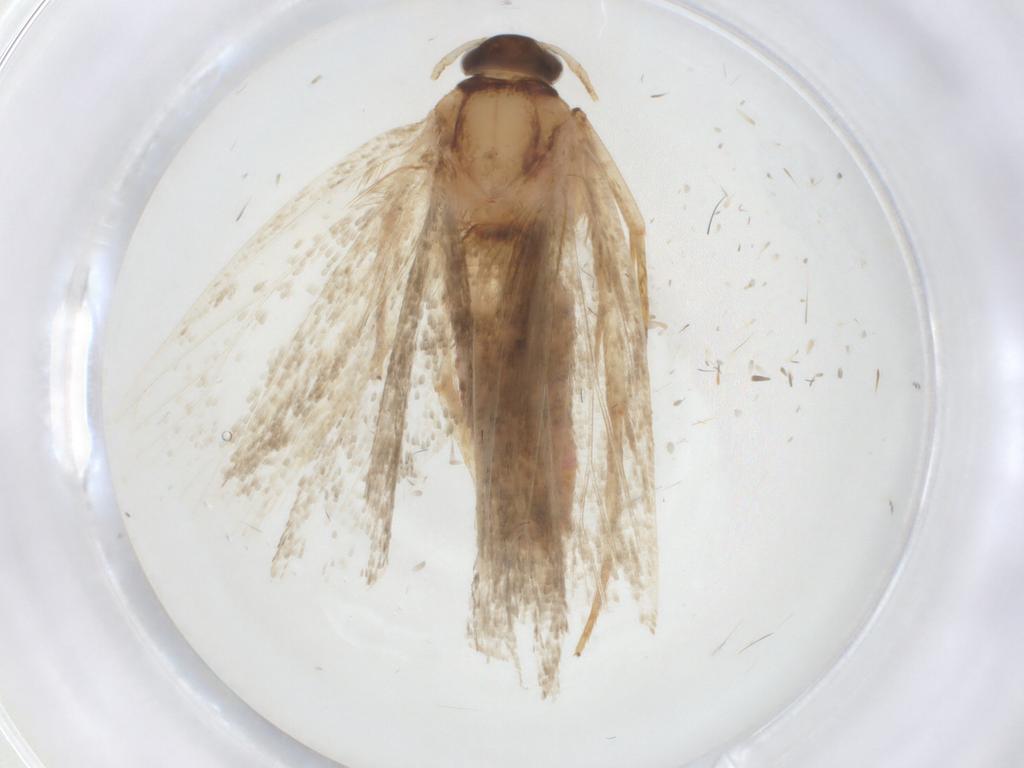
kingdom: Animalia
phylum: Arthropoda
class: Insecta
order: Lepidoptera
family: Autostichidae
